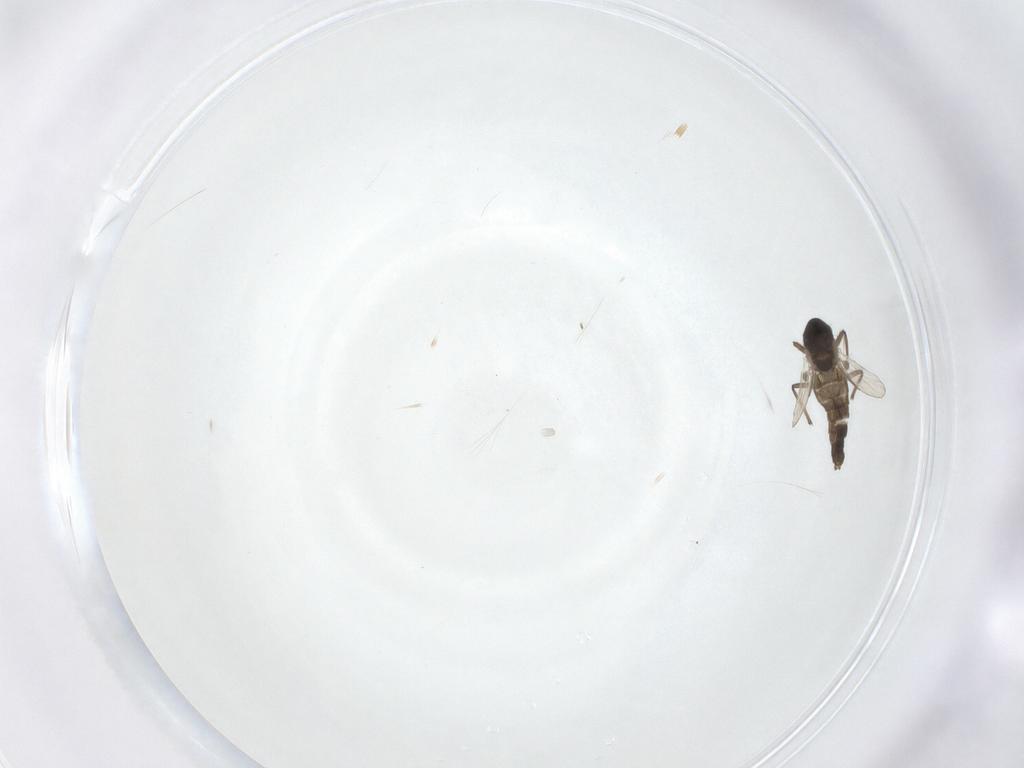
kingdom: Animalia
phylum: Arthropoda
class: Insecta
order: Diptera
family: Chironomidae
